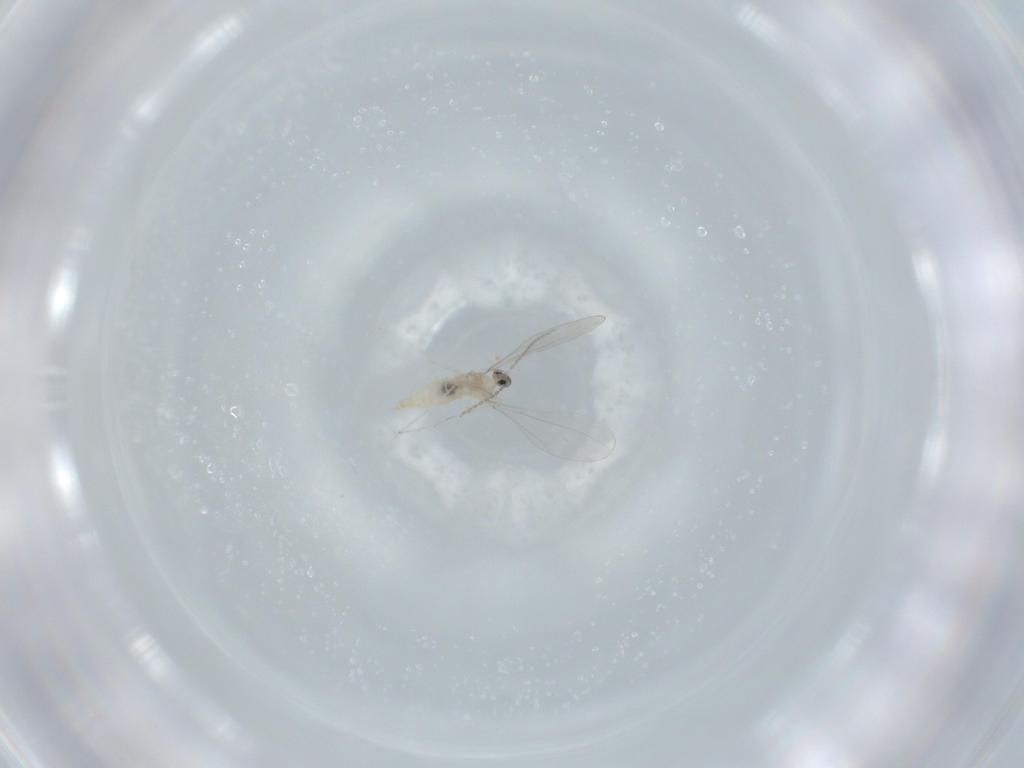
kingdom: Animalia
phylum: Arthropoda
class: Insecta
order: Diptera
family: Cecidomyiidae
